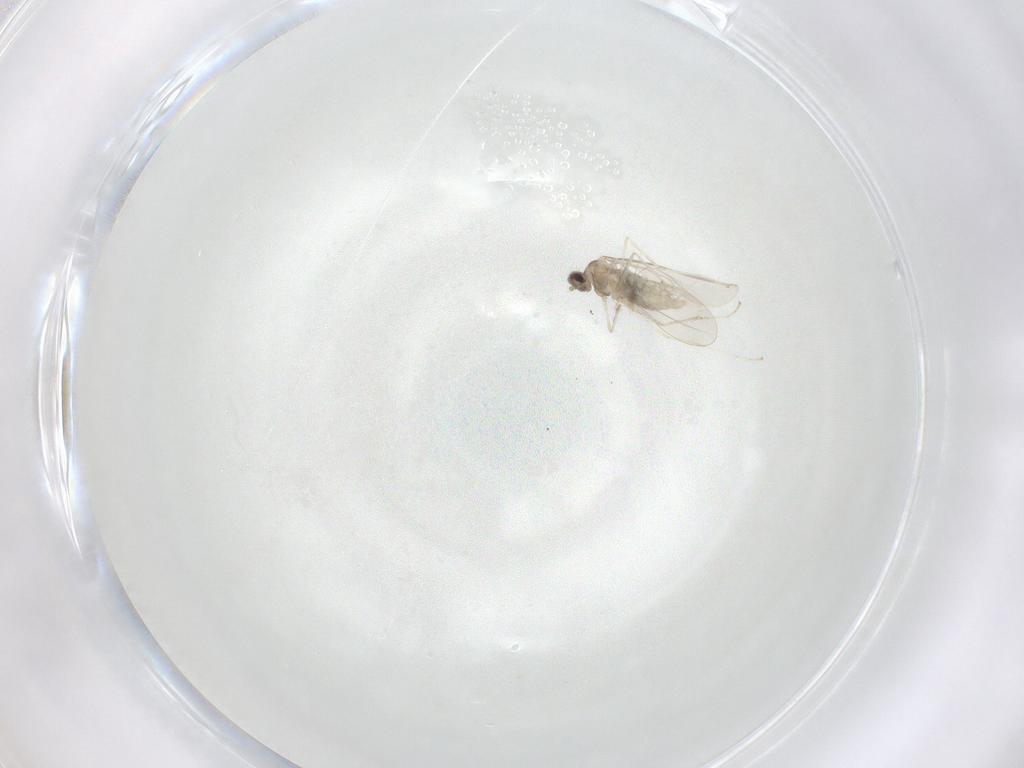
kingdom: Animalia
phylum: Arthropoda
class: Insecta
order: Diptera
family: Cecidomyiidae
